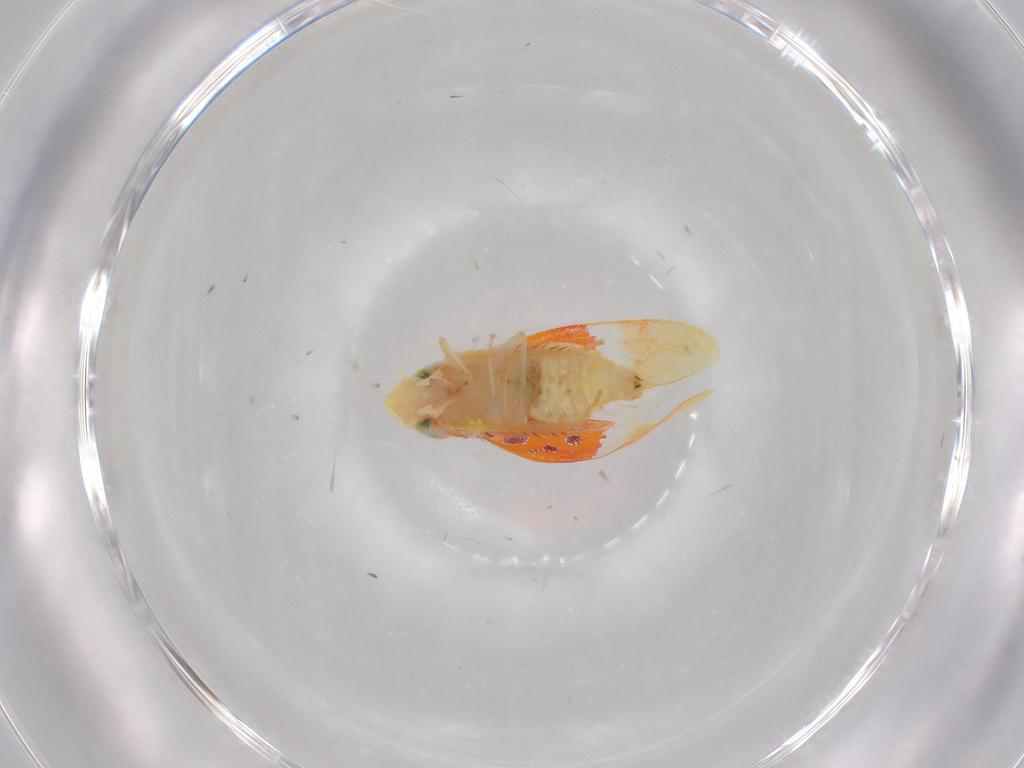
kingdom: Animalia
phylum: Arthropoda
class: Insecta
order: Hemiptera
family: Cicadellidae
